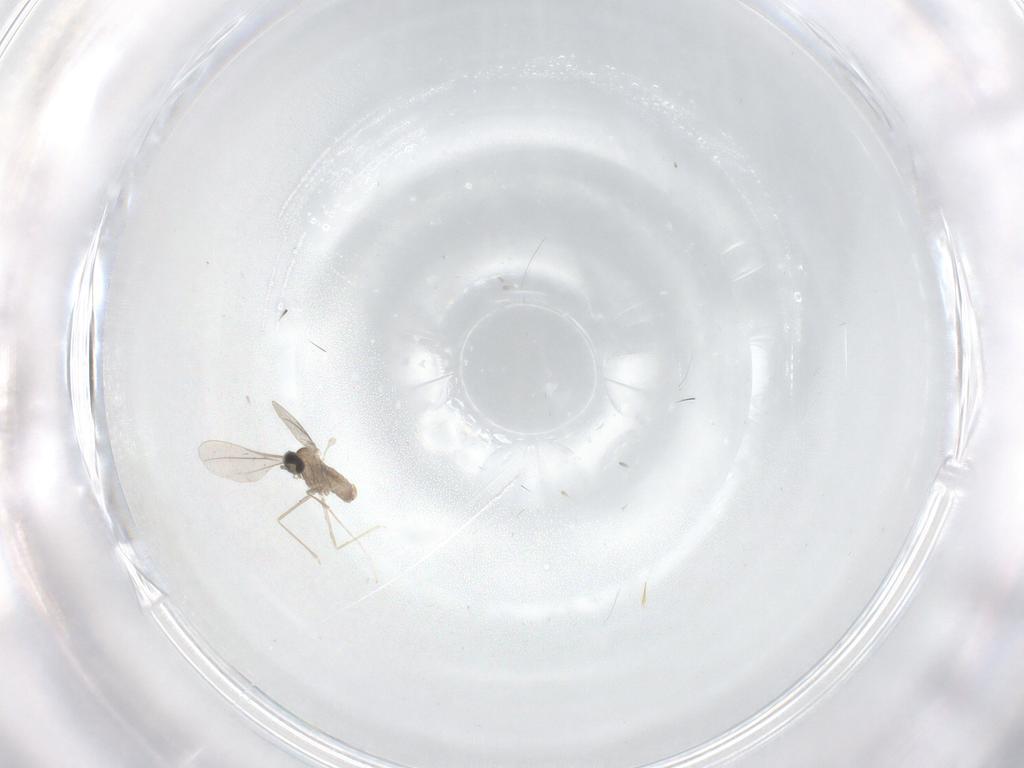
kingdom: Animalia
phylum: Arthropoda
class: Insecta
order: Diptera
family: Cecidomyiidae
